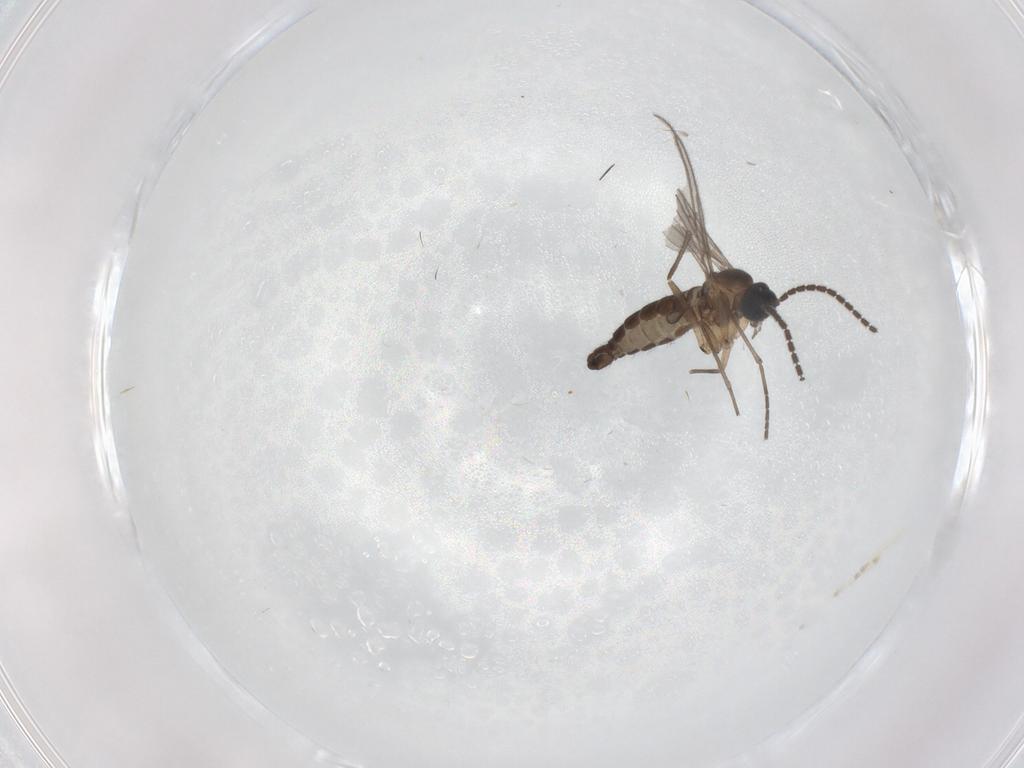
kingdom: Animalia
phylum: Arthropoda
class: Insecta
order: Diptera
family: Sciaridae
